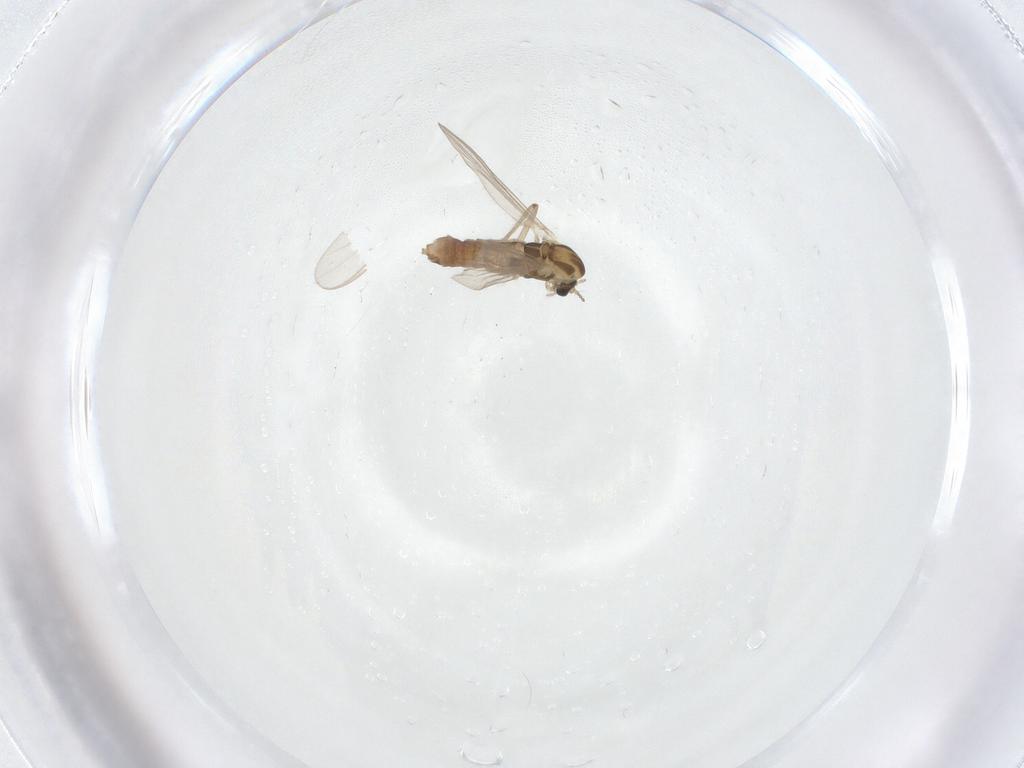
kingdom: Animalia
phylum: Arthropoda
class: Insecta
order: Diptera
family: Chironomidae
